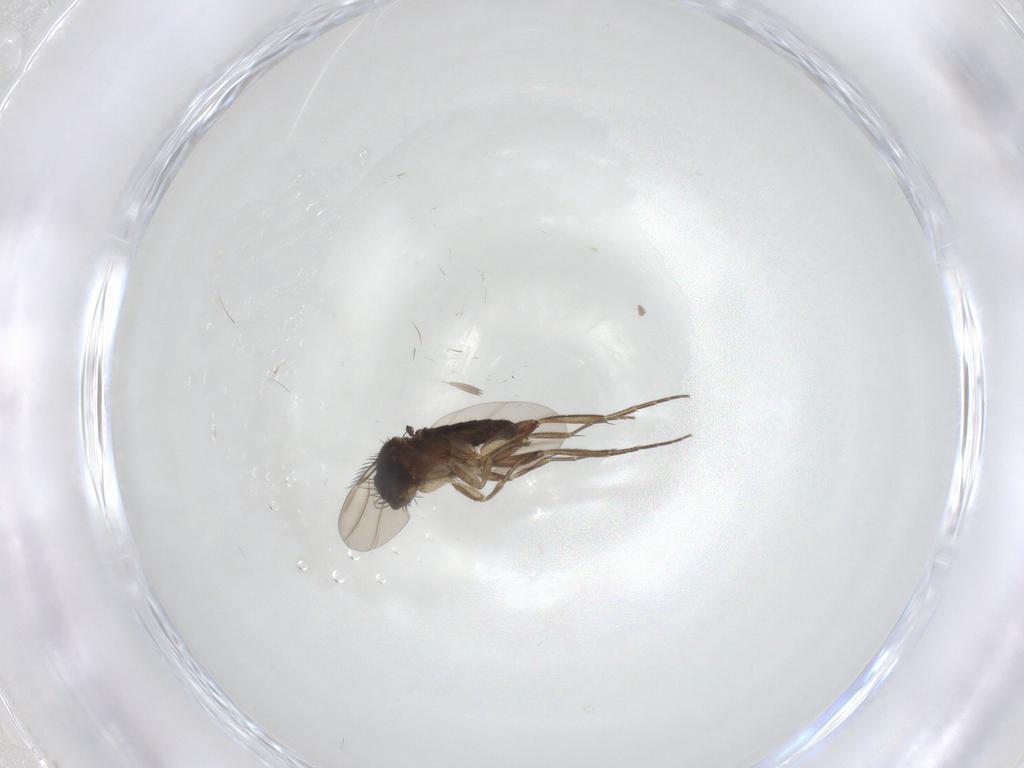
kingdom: Animalia
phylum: Arthropoda
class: Insecta
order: Diptera
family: Phoridae
